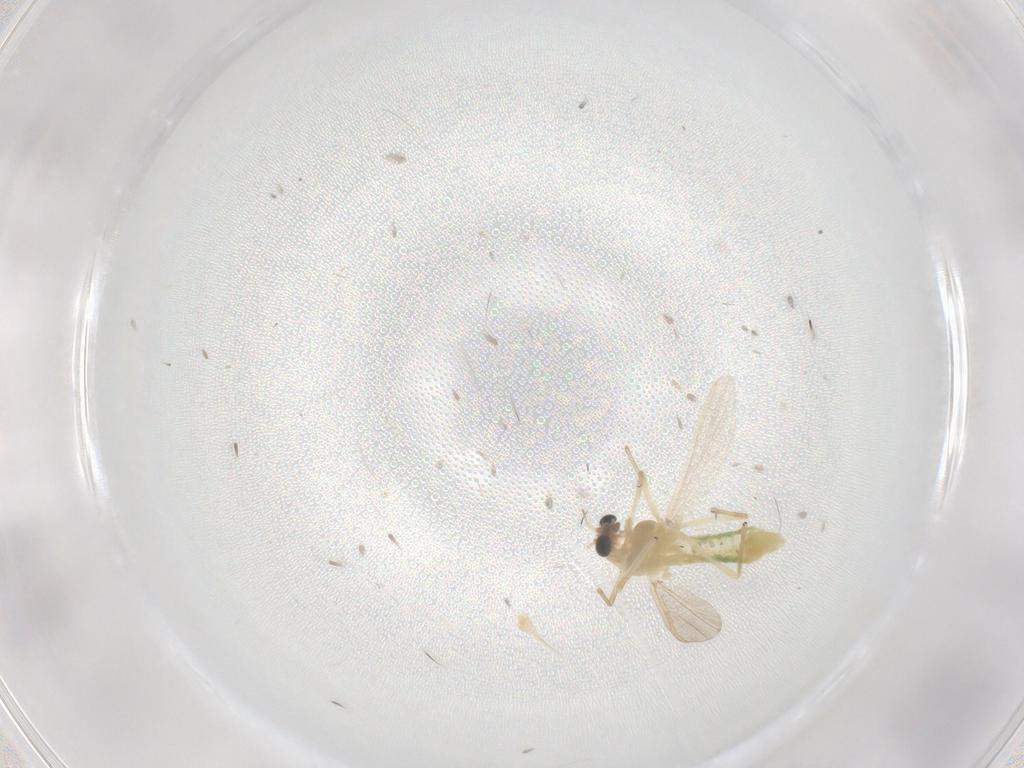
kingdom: Animalia
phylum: Arthropoda
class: Insecta
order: Diptera
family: Chironomidae
